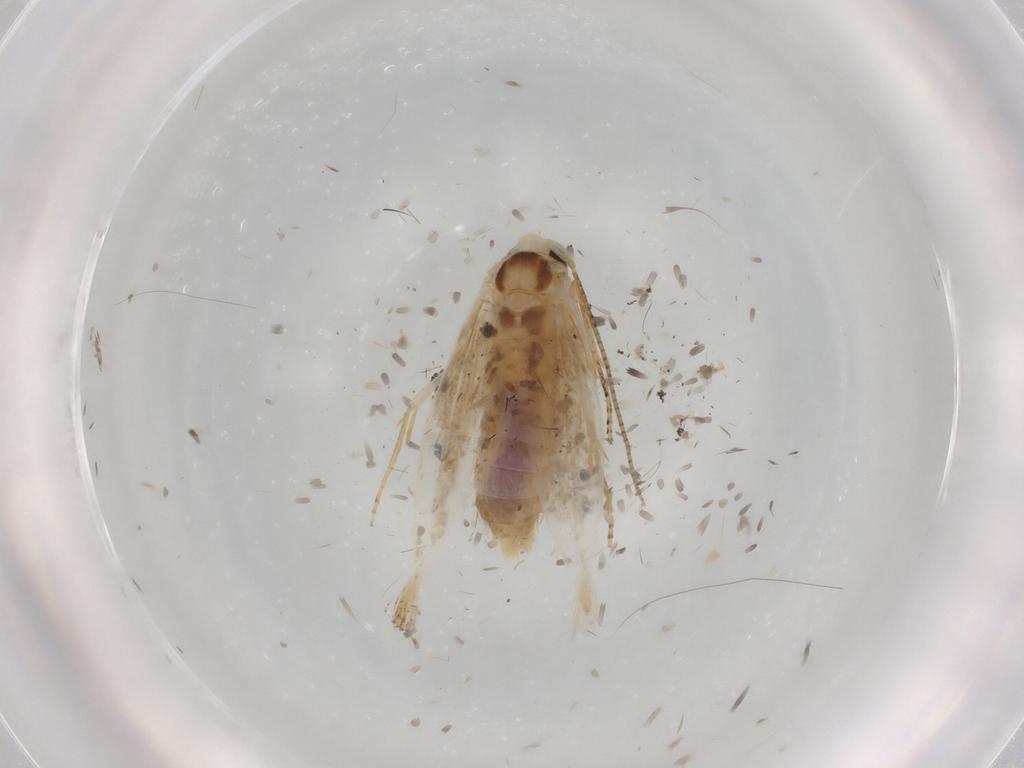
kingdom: Animalia
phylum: Arthropoda
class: Insecta
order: Lepidoptera
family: Bucculatricidae
